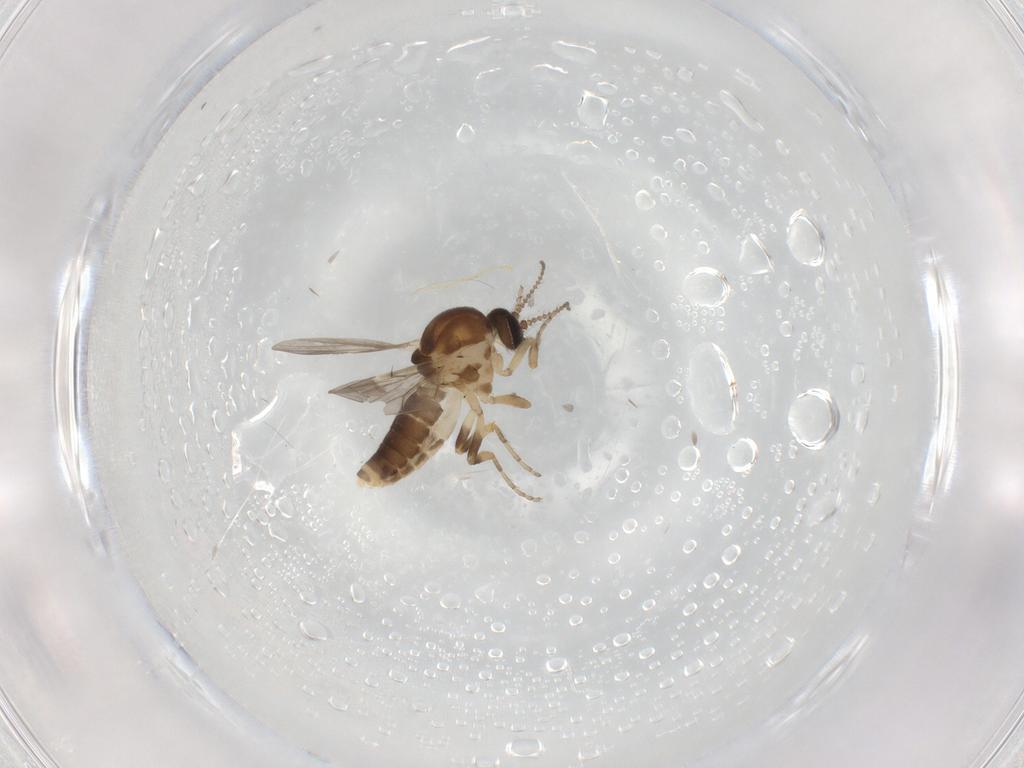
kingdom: Animalia
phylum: Arthropoda
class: Insecta
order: Diptera
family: Ceratopogonidae
